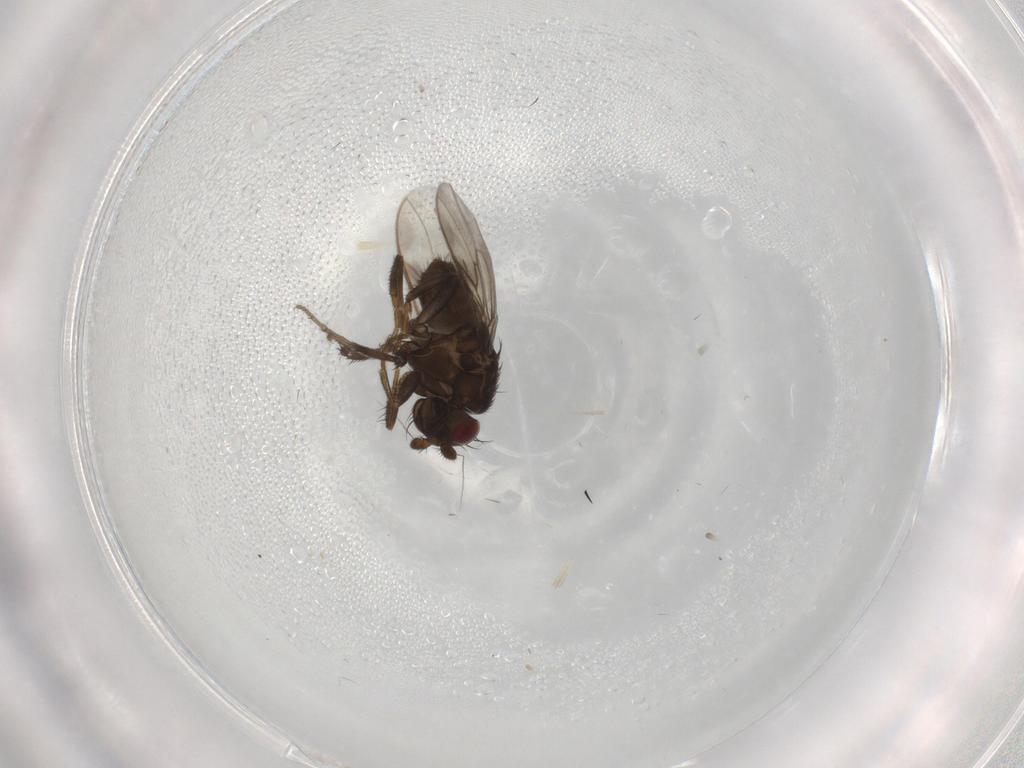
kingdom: Animalia
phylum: Arthropoda
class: Insecta
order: Diptera
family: Sphaeroceridae
